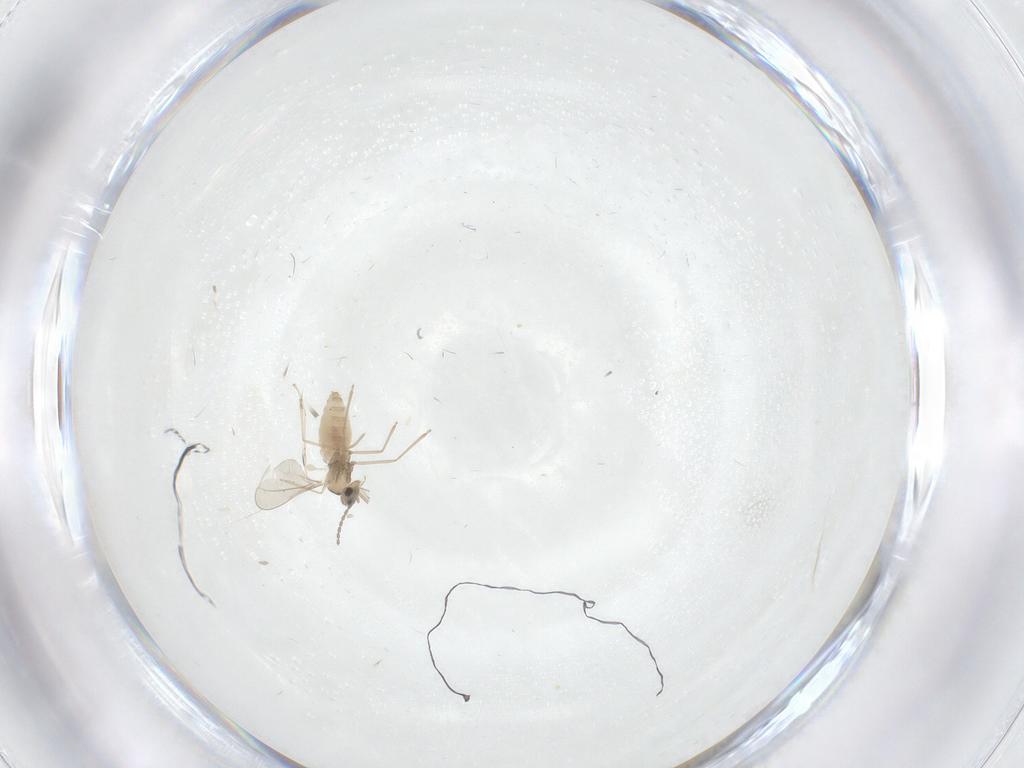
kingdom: Animalia
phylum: Arthropoda
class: Insecta
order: Diptera
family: Cecidomyiidae
